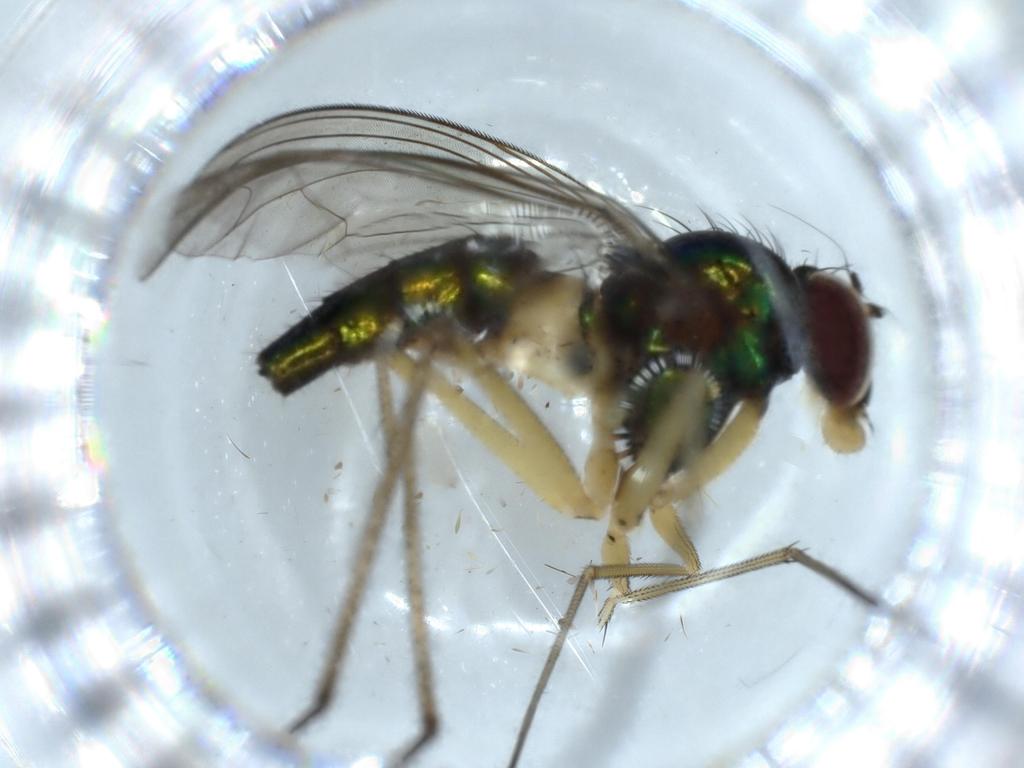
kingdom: Animalia
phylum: Arthropoda
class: Insecta
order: Diptera
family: Dolichopodidae
